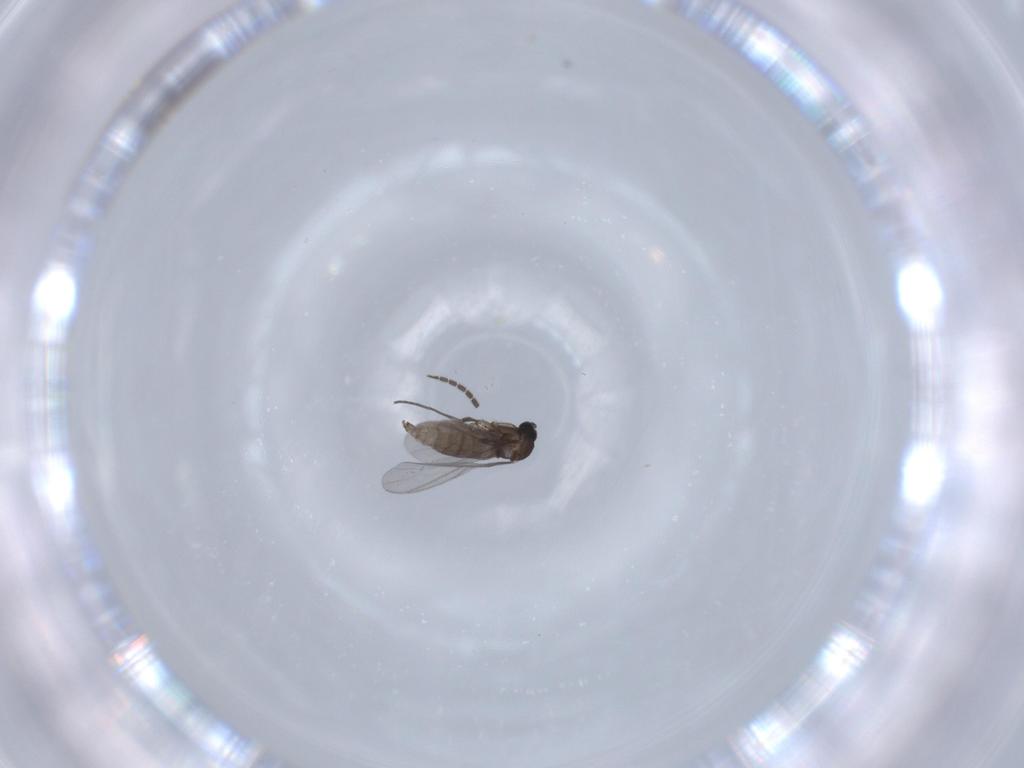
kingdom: Animalia
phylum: Arthropoda
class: Insecta
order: Diptera
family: Sciaridae
